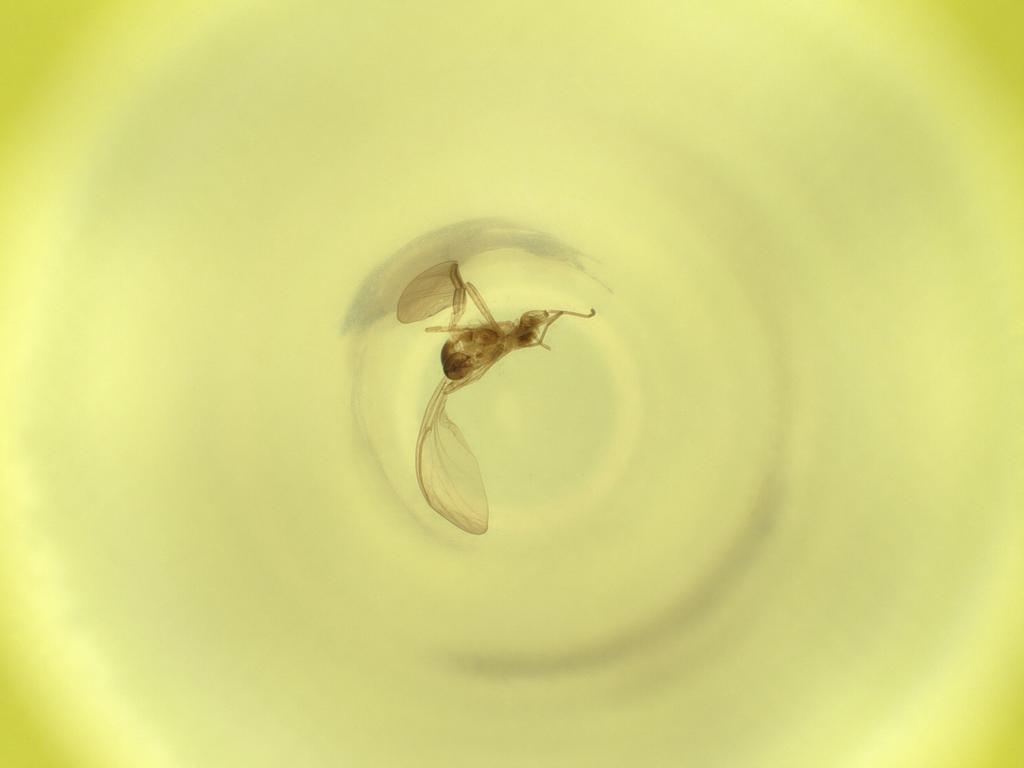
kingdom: Animalia
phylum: Arthropoda
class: Insecta
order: Diptera
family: Cecidomyiidae
